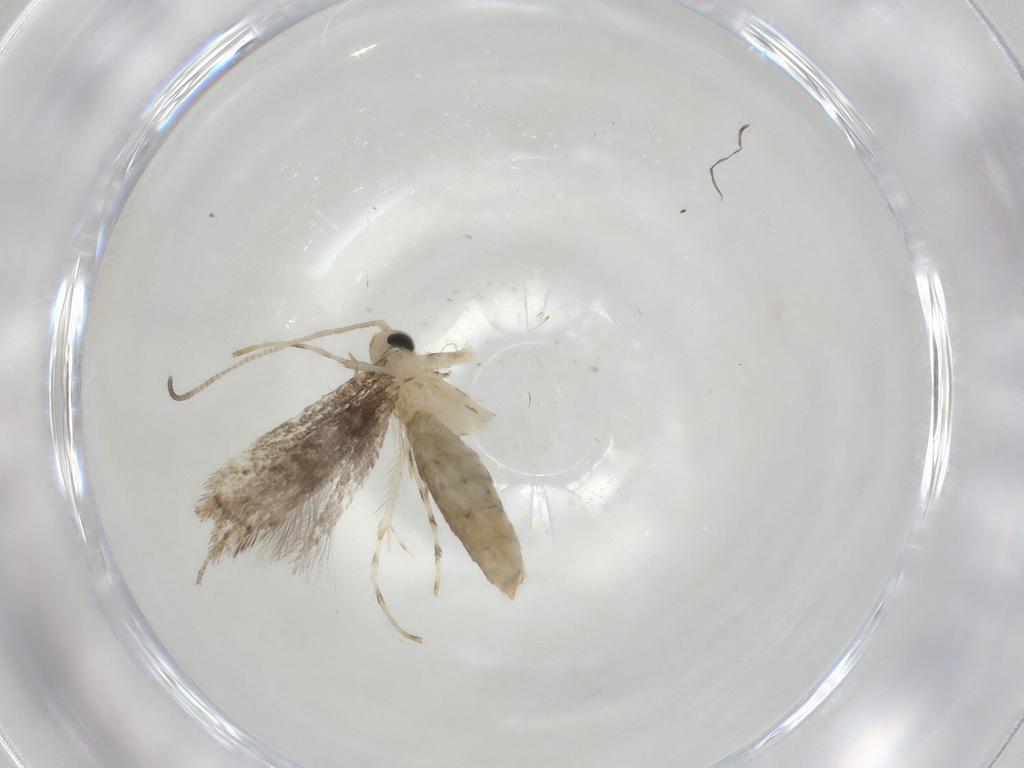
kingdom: Animalia
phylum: Arthropoda
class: Insecta
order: Lepidoptera
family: Gracillariidae
